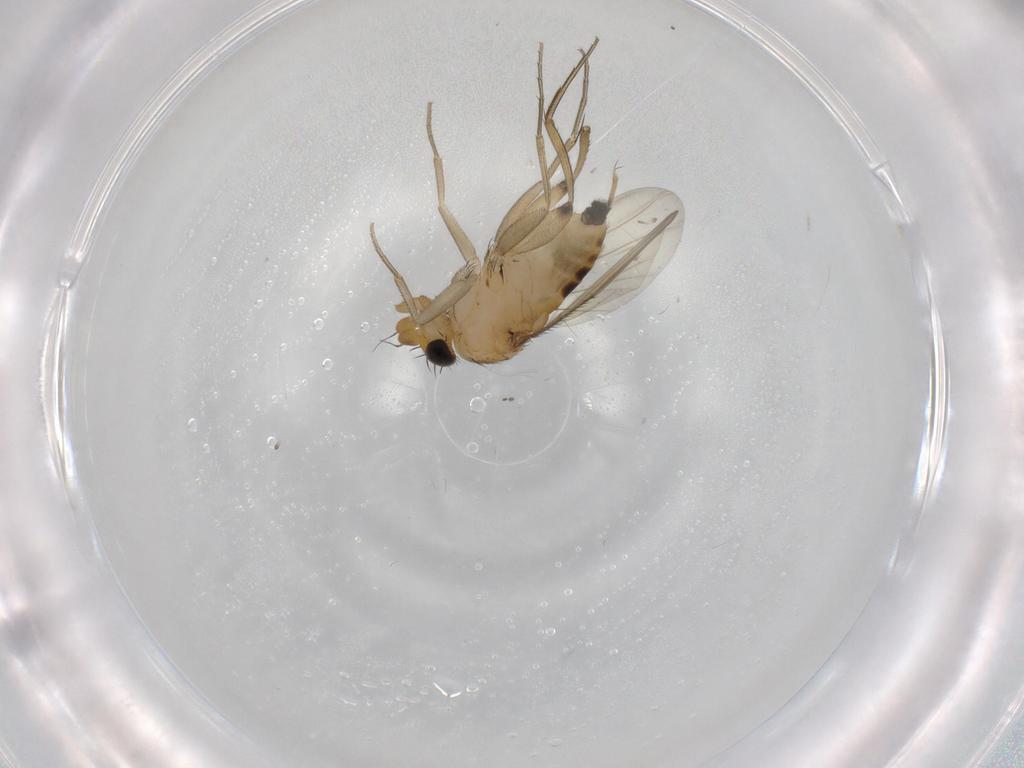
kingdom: Animalia
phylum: Arthropoda
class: Insecta
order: Diptera
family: Phoridae
